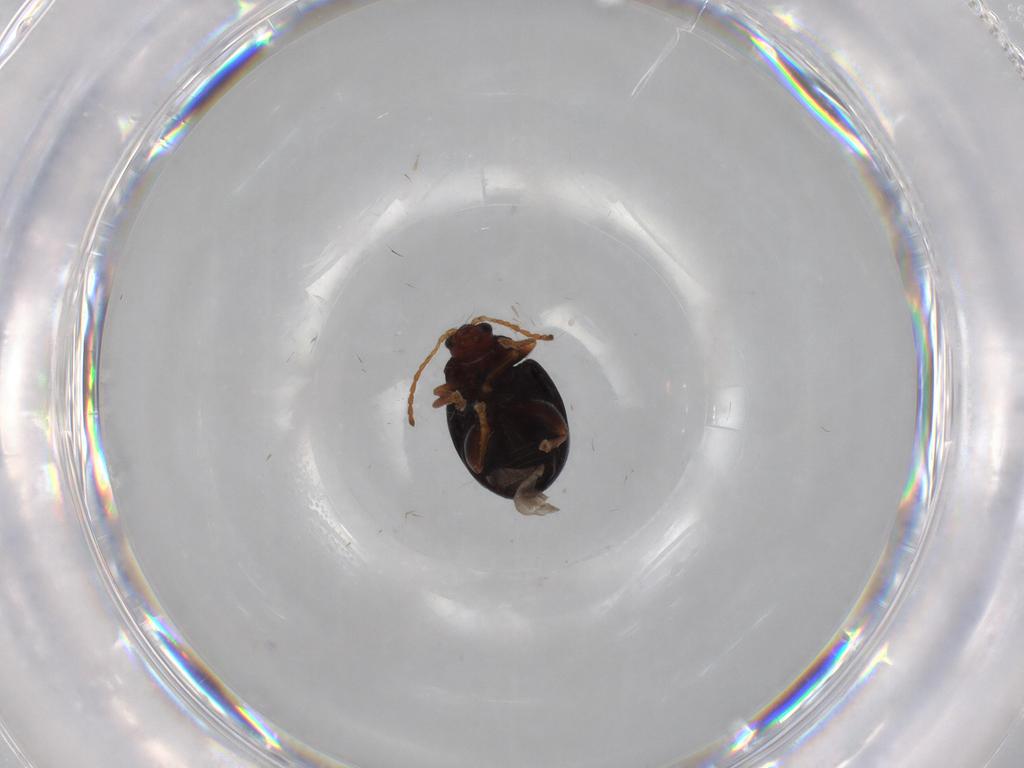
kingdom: Animalia
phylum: Arthropoda
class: Insecta
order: Coleoptera
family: Chrysomelidae
